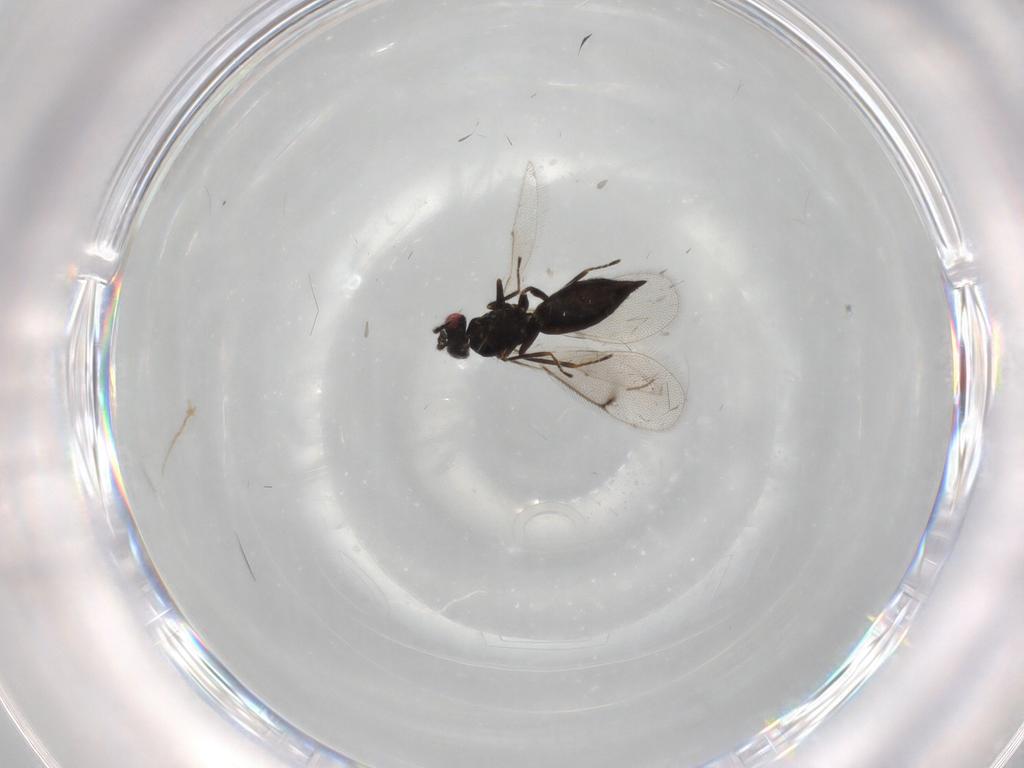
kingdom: Animalia
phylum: Arthropoda
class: Insecta
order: Hymenoptera
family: Eulophidae
